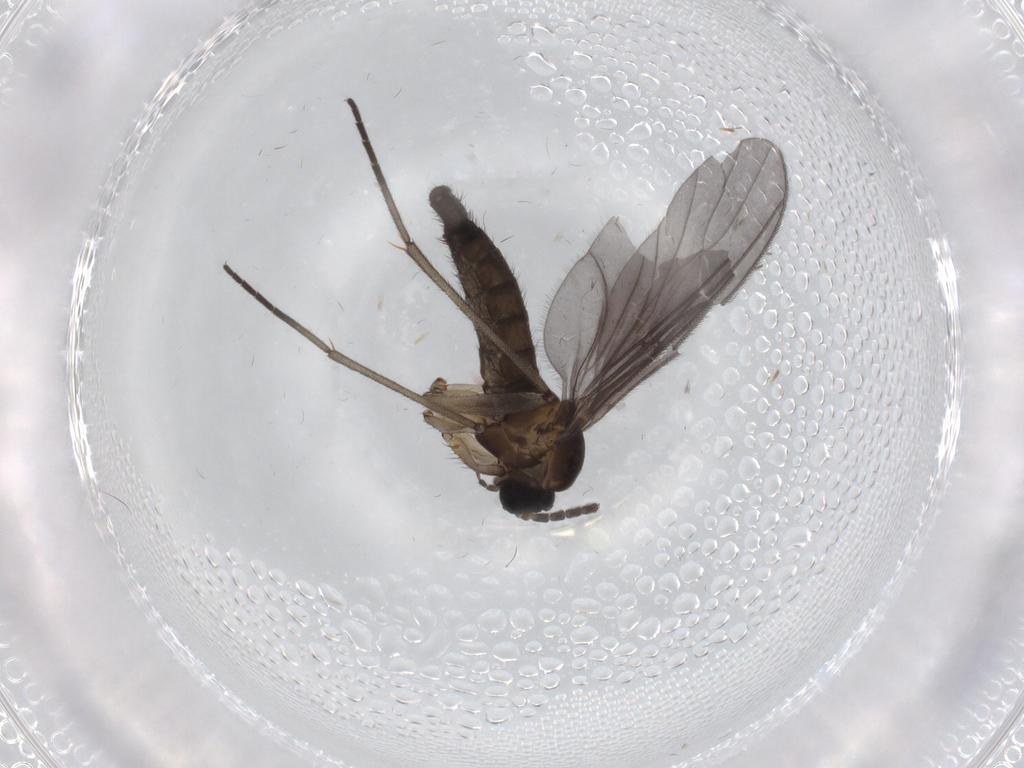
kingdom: Animalia
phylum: Arthropoda
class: Insecta
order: Diptera
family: Sciaridae
